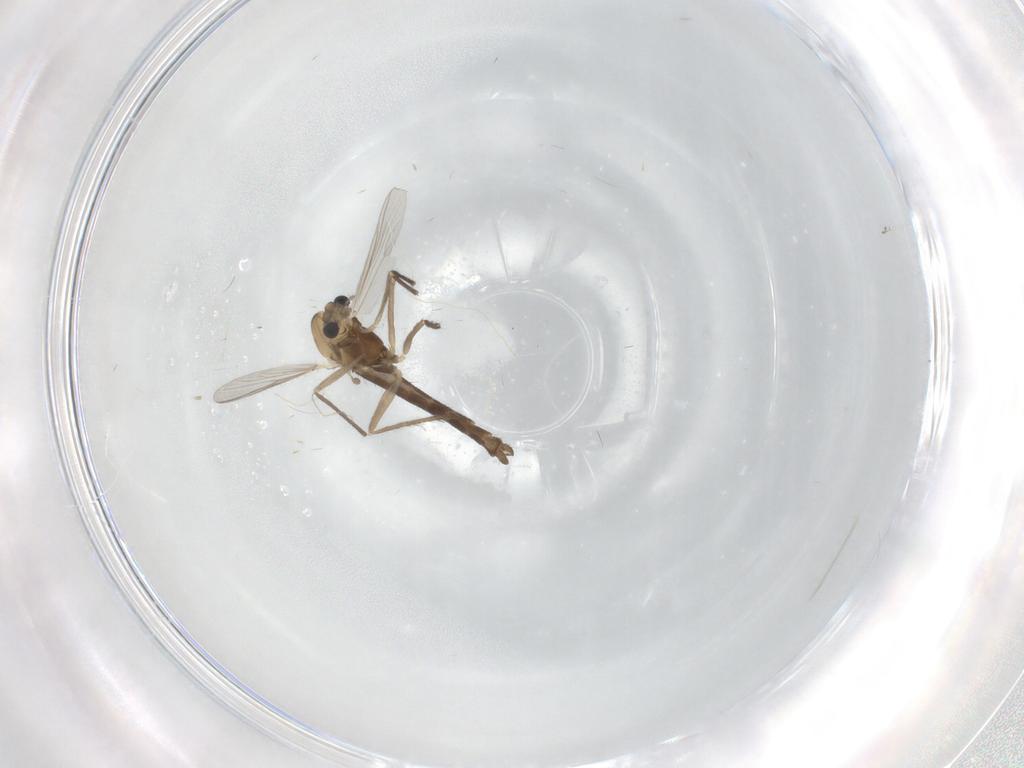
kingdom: Animalia
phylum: Arthropoda
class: Insecta
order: Diptera
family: Chironomidae
